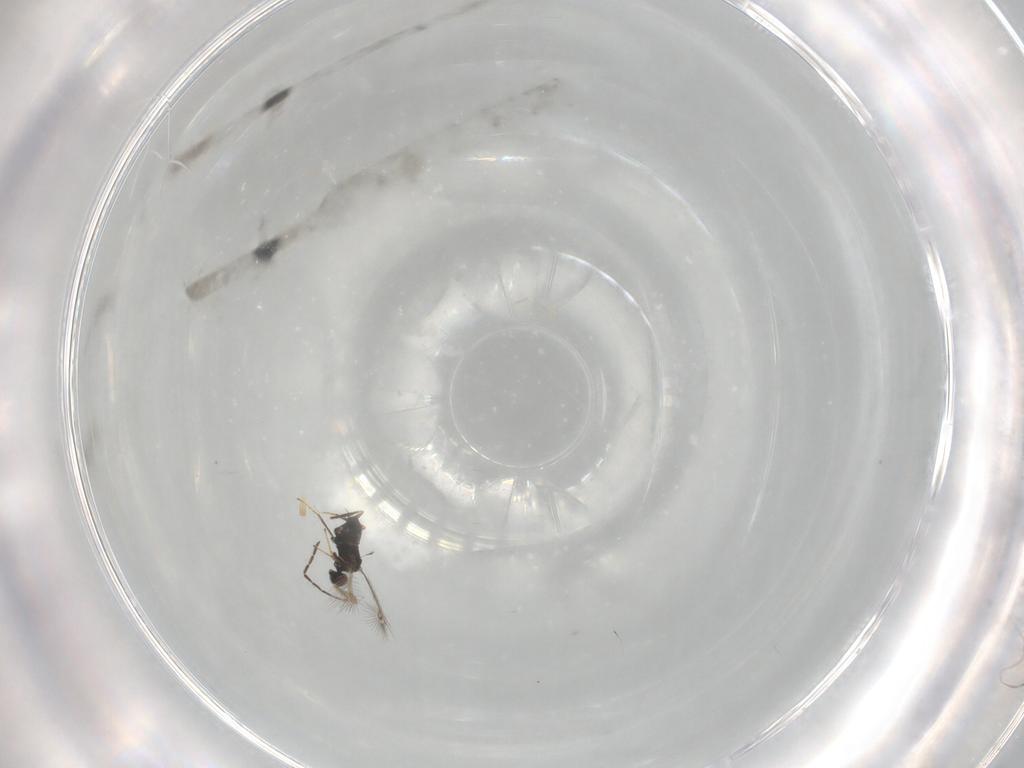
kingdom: Animalia
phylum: Arthropoda
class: Insecta
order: Hymenoptera
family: Mymaridae
